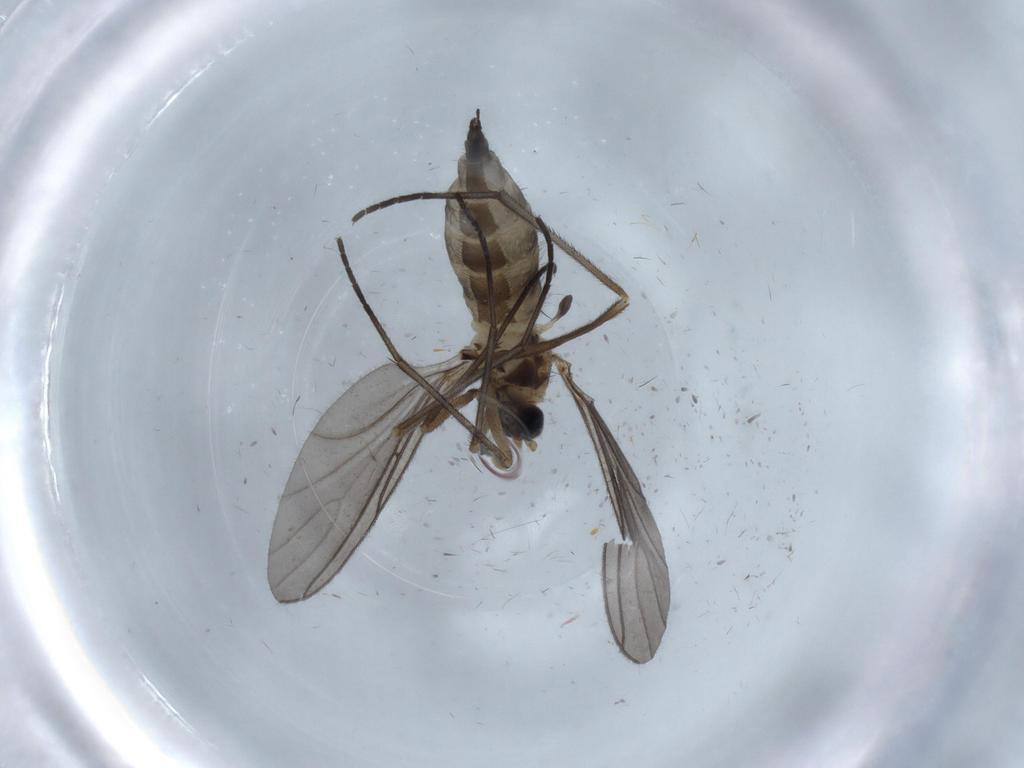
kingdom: Animalia
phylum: Arthropoda
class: Insecta
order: Diptera
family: Sciaridae
